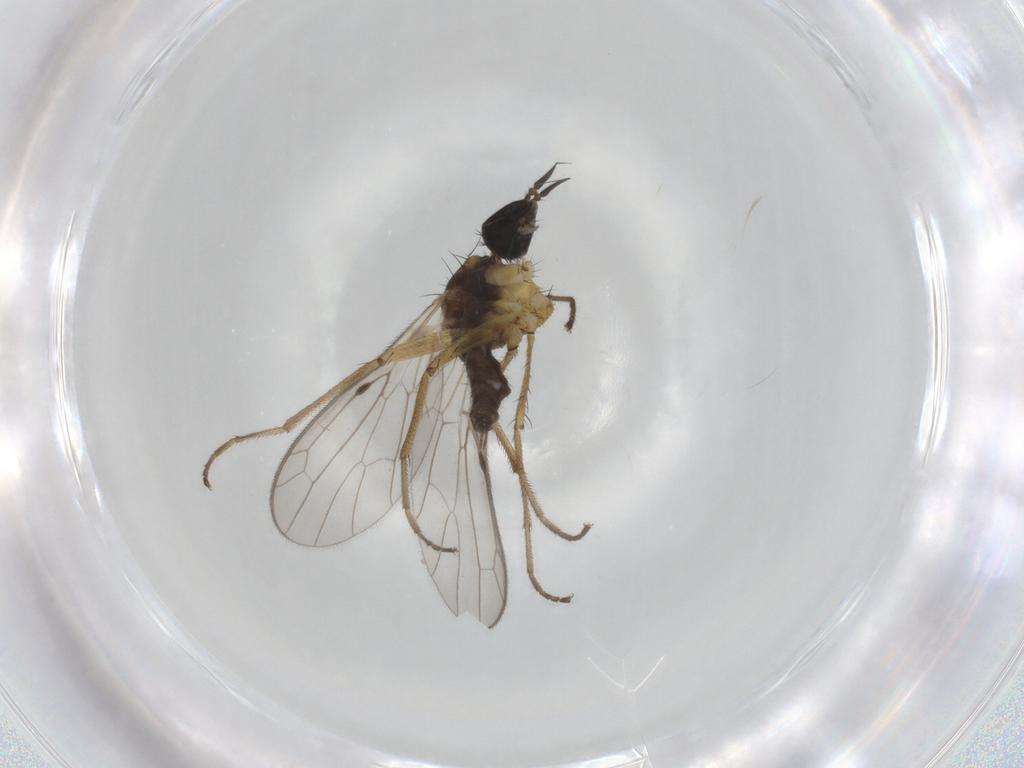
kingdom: Animalia
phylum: Arthropoda
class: Insecta
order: Diptera
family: Empididae
